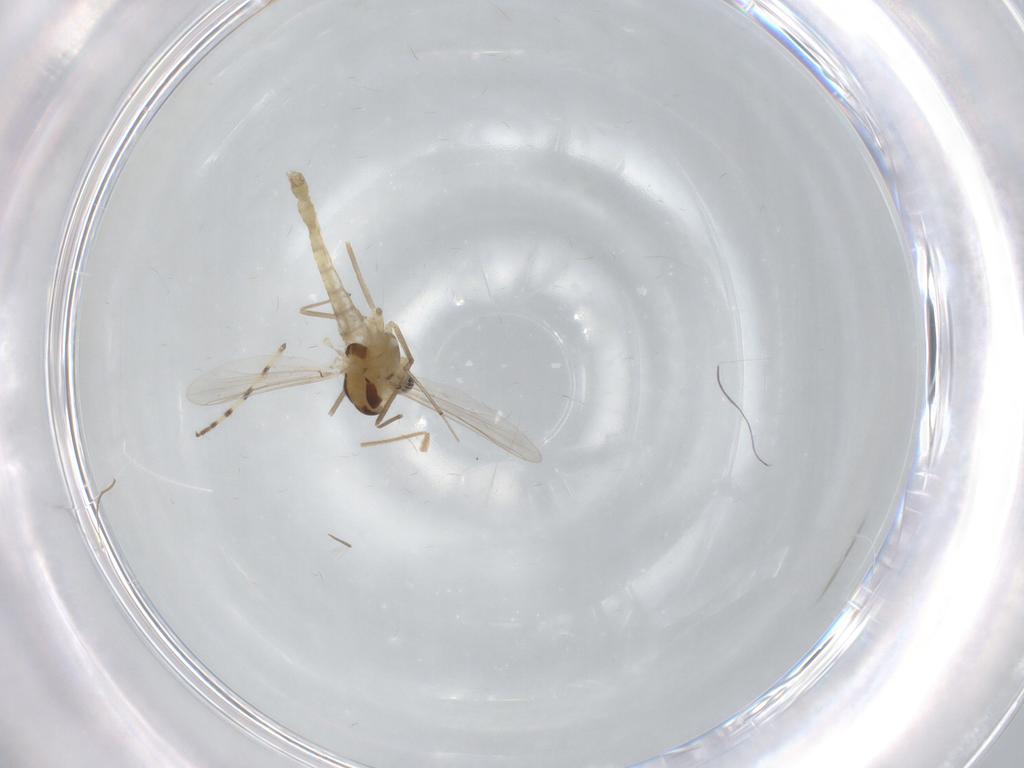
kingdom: Animalia
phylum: Arthropoda
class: Insecta
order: Diptera
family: Chironomidae
